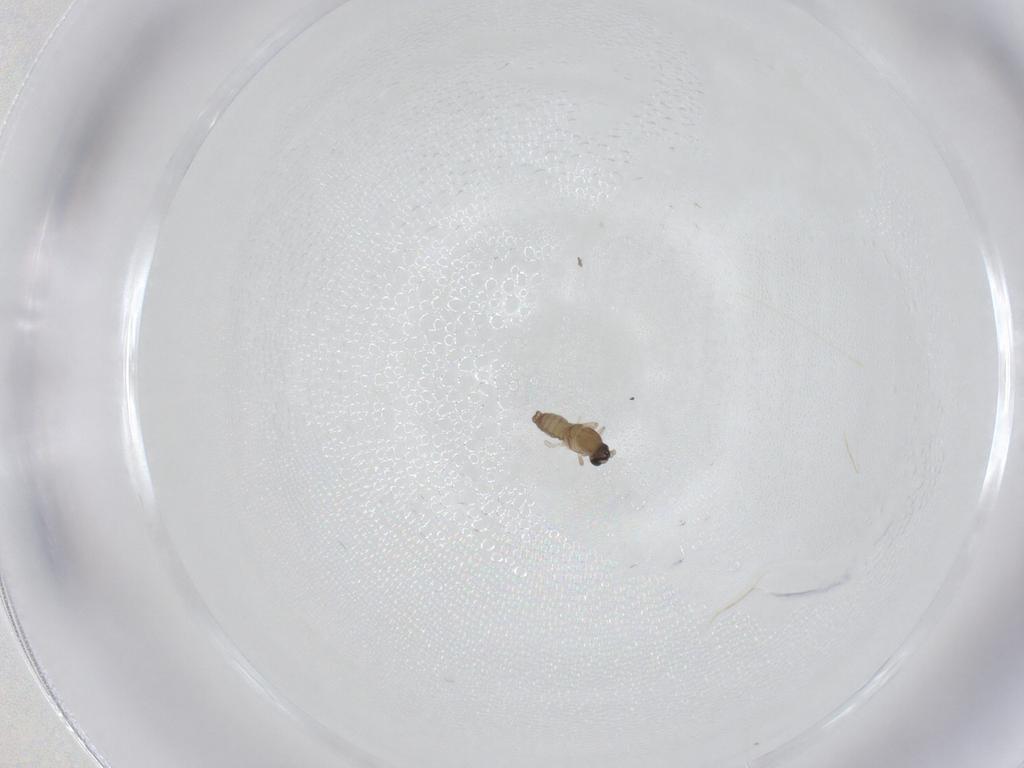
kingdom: Animalia
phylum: Arthropoda
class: Insecta
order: Diptera
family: Cecidomyiidae
